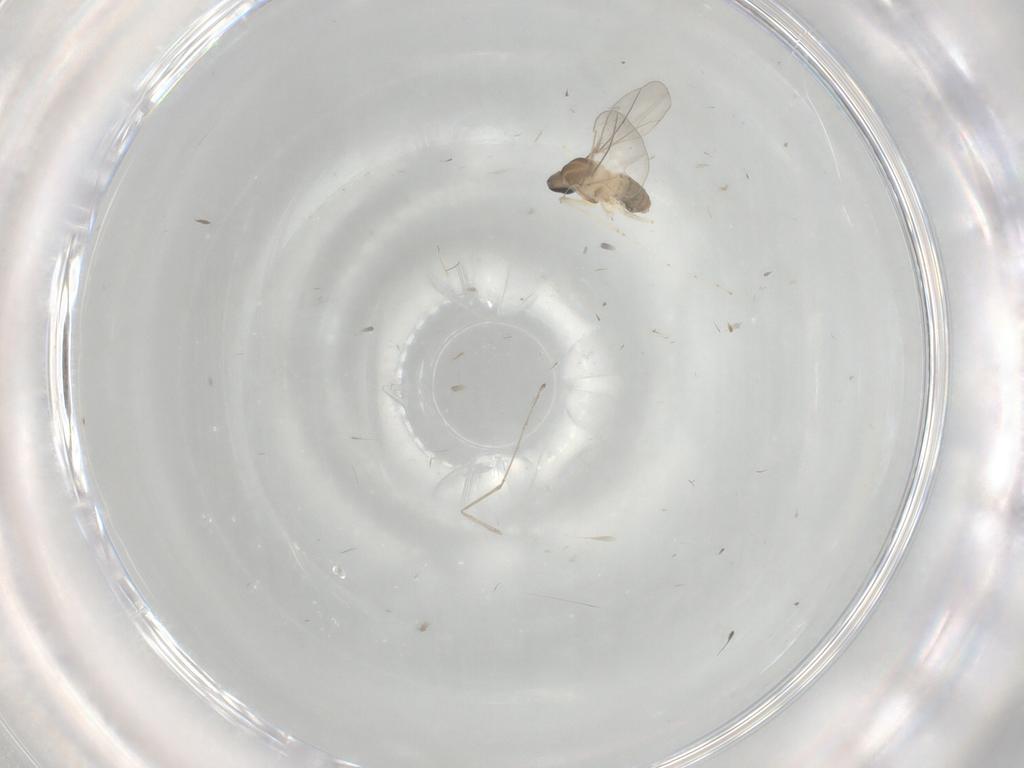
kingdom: Animalia
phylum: Arthropoda
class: Insecta
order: Diptera
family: Cecidomyiidae
